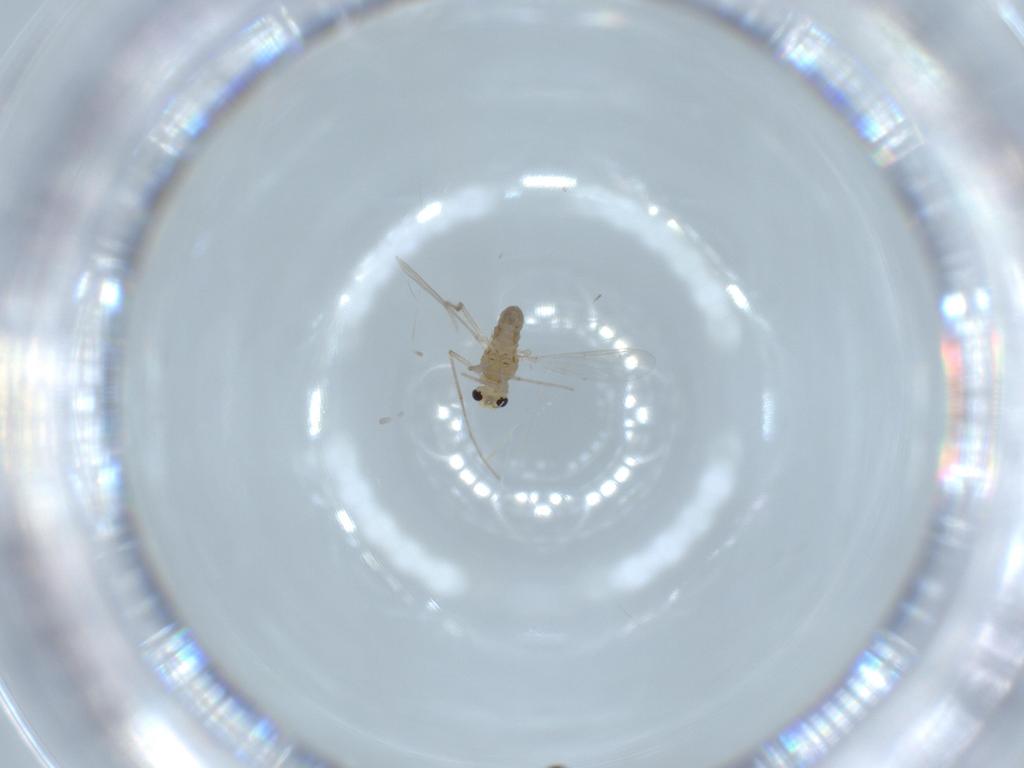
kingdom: Animalia
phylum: Arthropoda
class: Insecta
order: Diptera
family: Chironomidae
